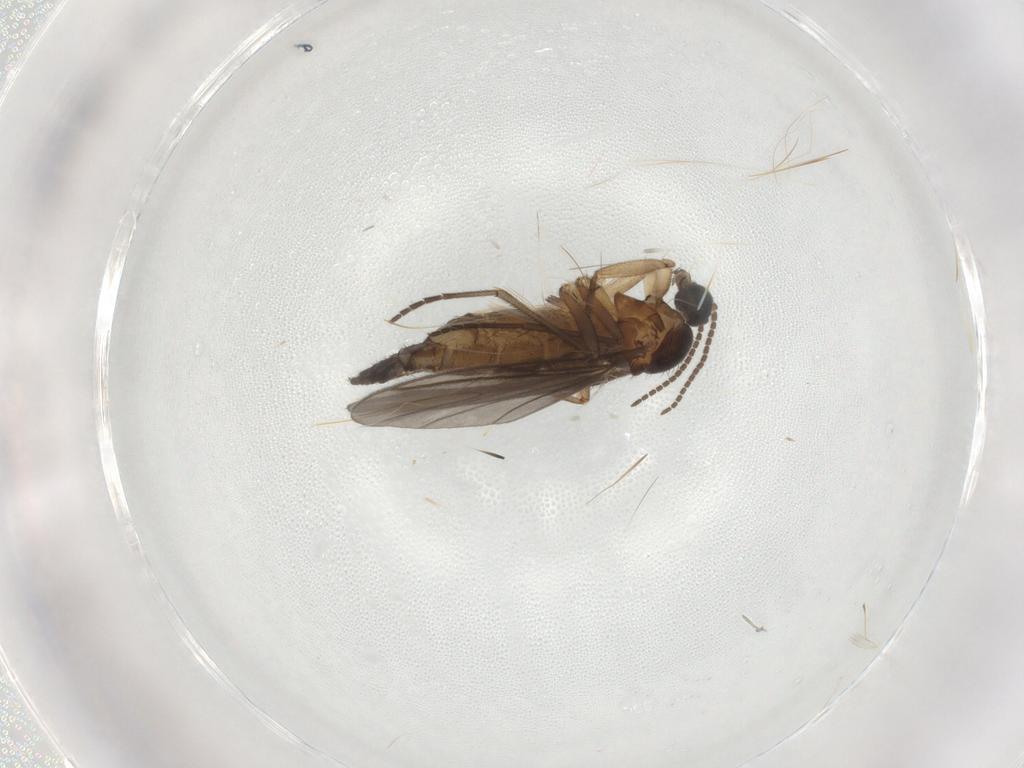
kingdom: Animalia
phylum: Arthropoda
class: Insecta
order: Diptera
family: Sciaridae
